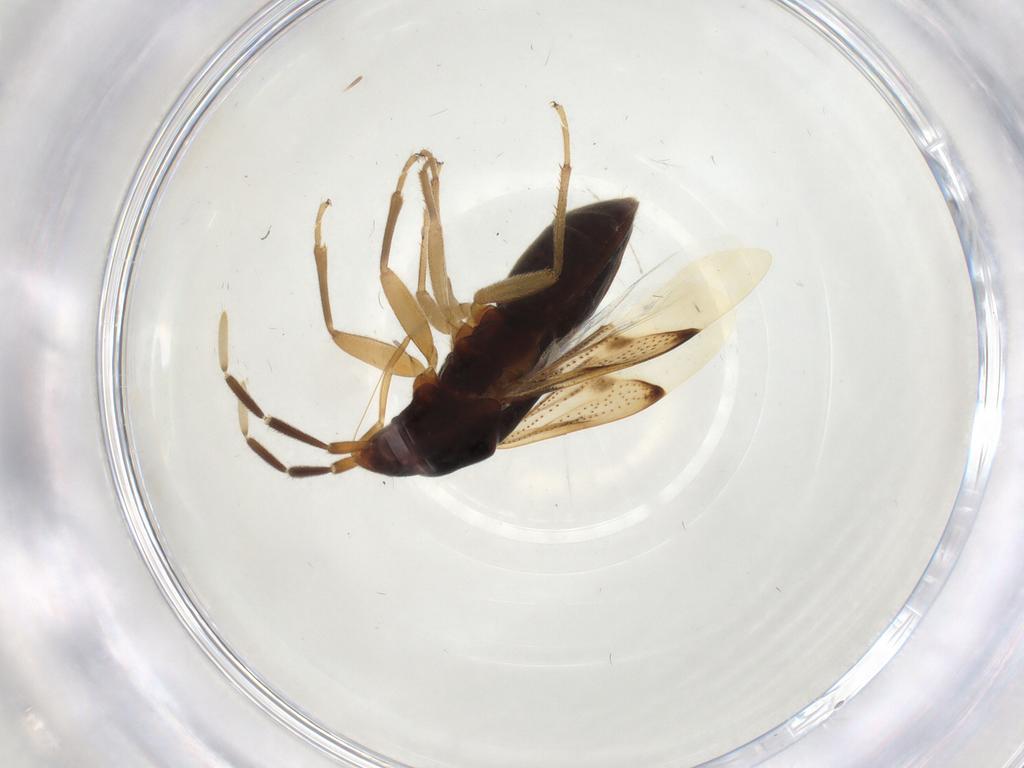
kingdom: Animalia
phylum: Arthropoda
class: Insecta
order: Hemiptera
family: Rhyparochromidae
